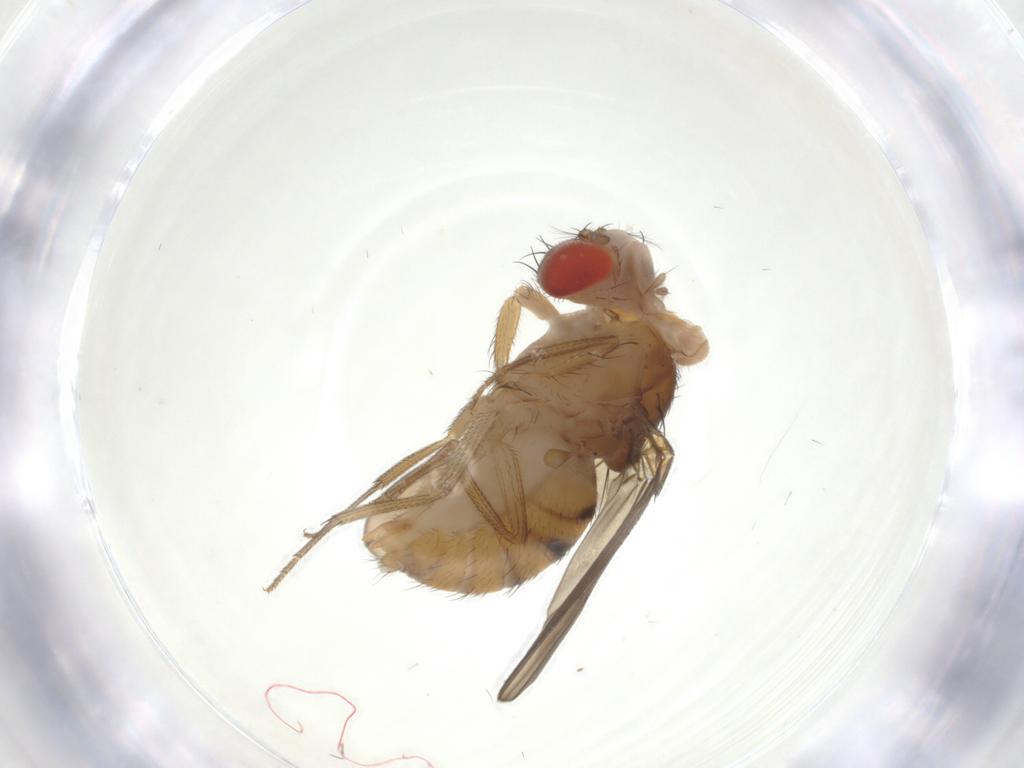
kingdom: Animalia
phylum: Arthropoda
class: Insecta
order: Diptera
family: Drosophilidae
